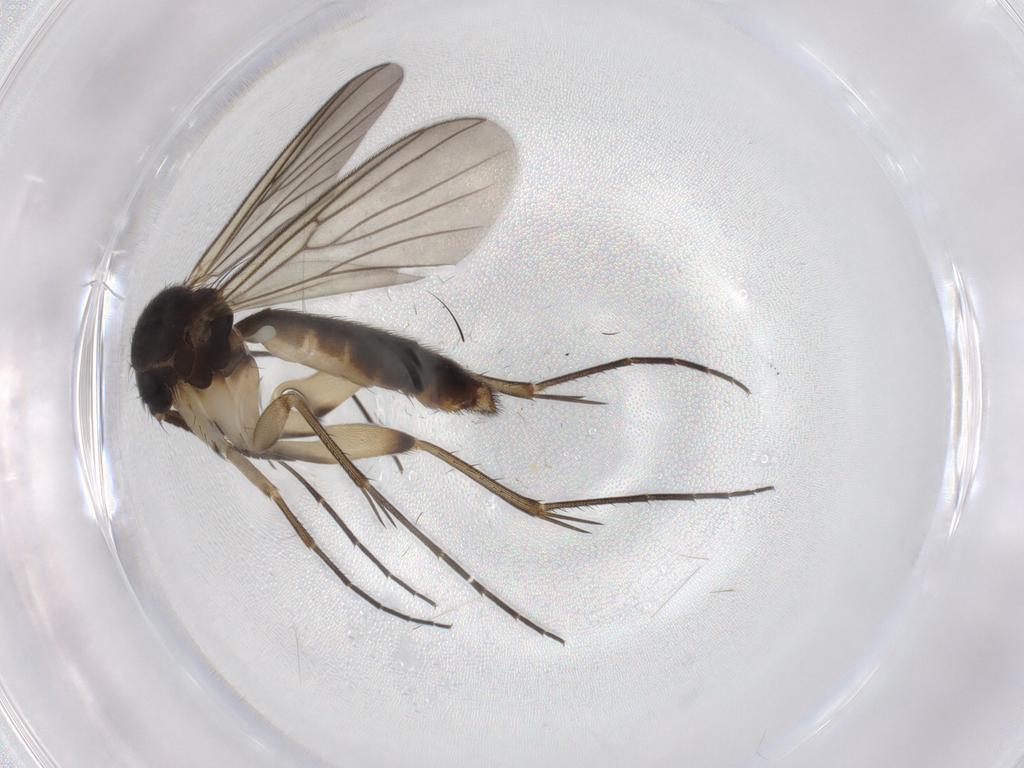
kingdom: Animalia
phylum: Arthropoda
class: Insecta
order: Diptera
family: Mycetophilidae
